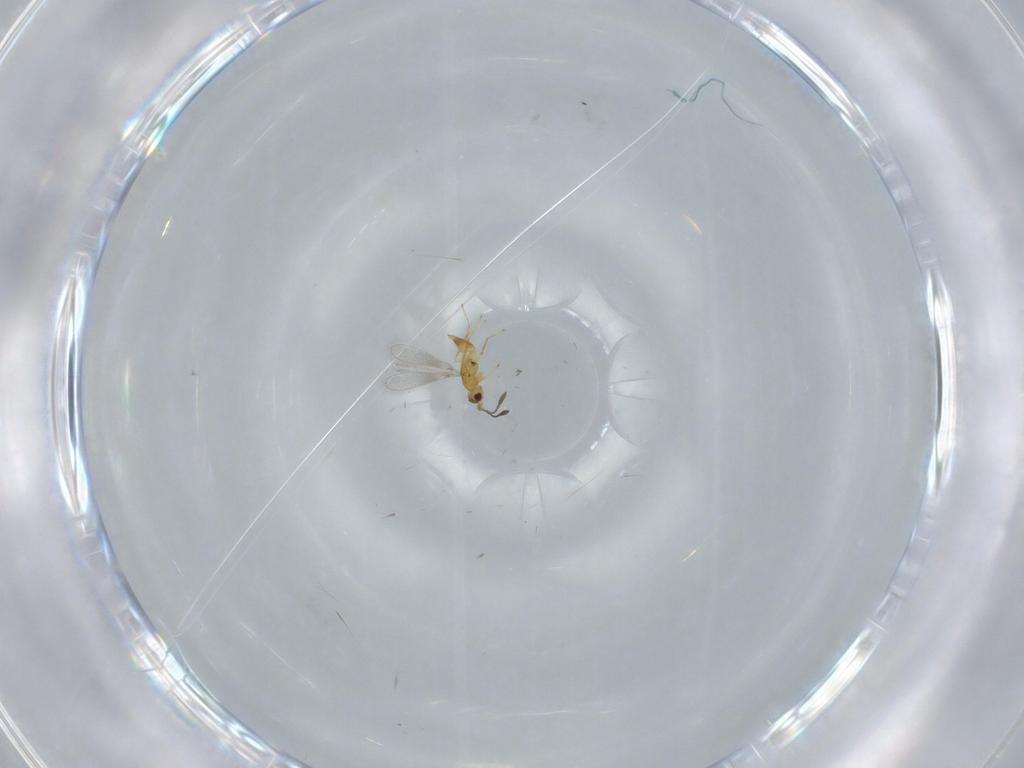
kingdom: Animalia
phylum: Arthropoda
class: Insecta
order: Hymenoptera
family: Mymaridae
